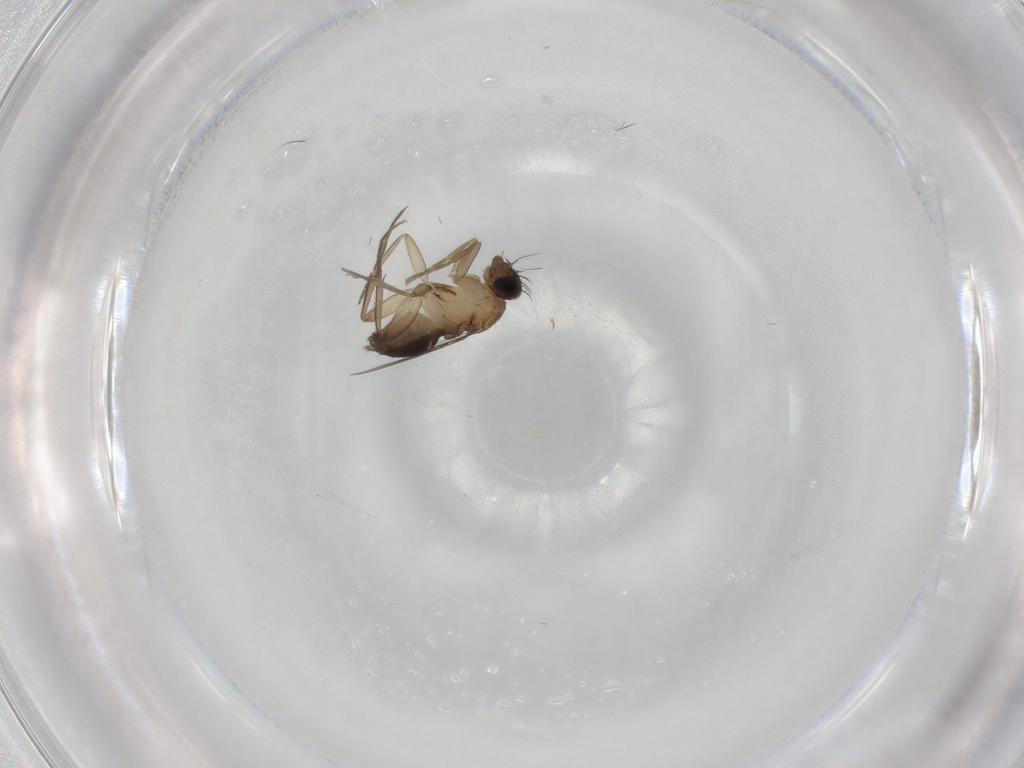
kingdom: Animalia
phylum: Arthropoda
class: Insecta
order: Diptera
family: Phoridae
